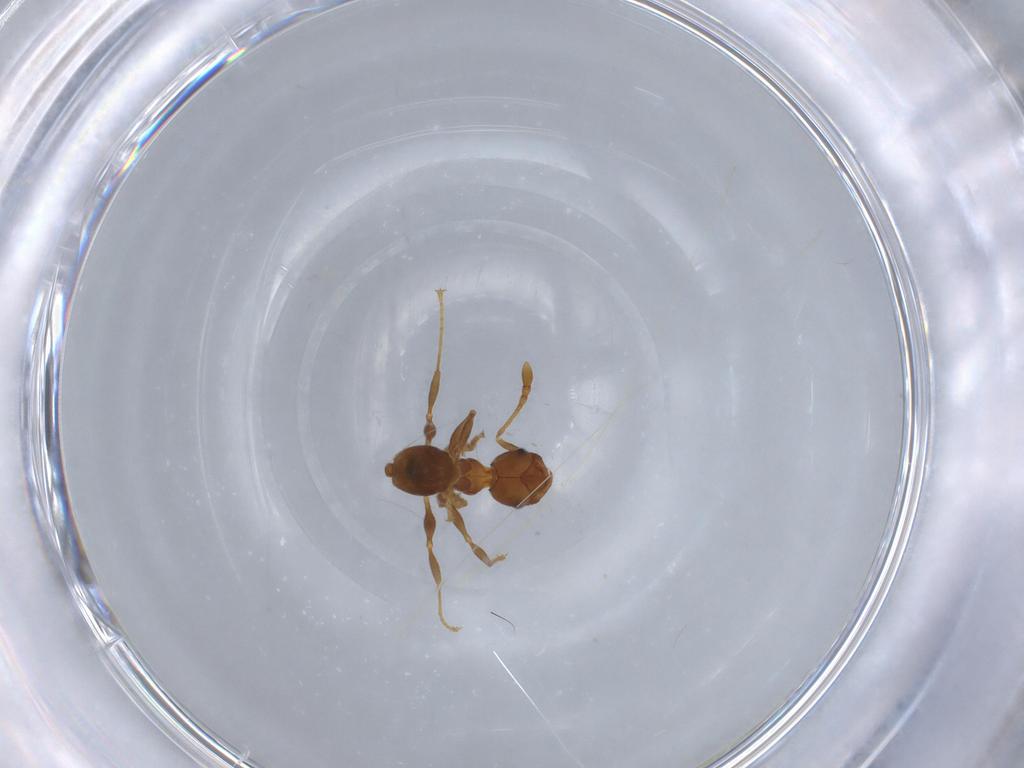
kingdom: Animalia
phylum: Arthropoda
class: Insecta
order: Hymenoptera
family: Formicidae
